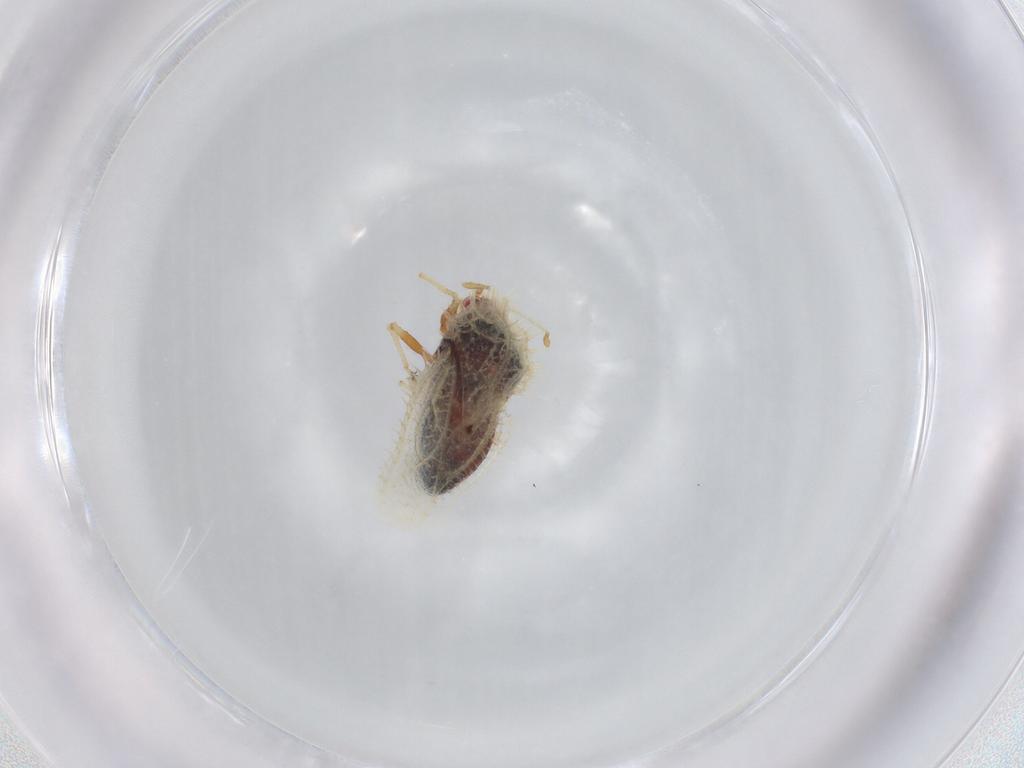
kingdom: Animalia
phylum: Arthropoda
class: Insecta
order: Hemiptera
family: Tingidae
